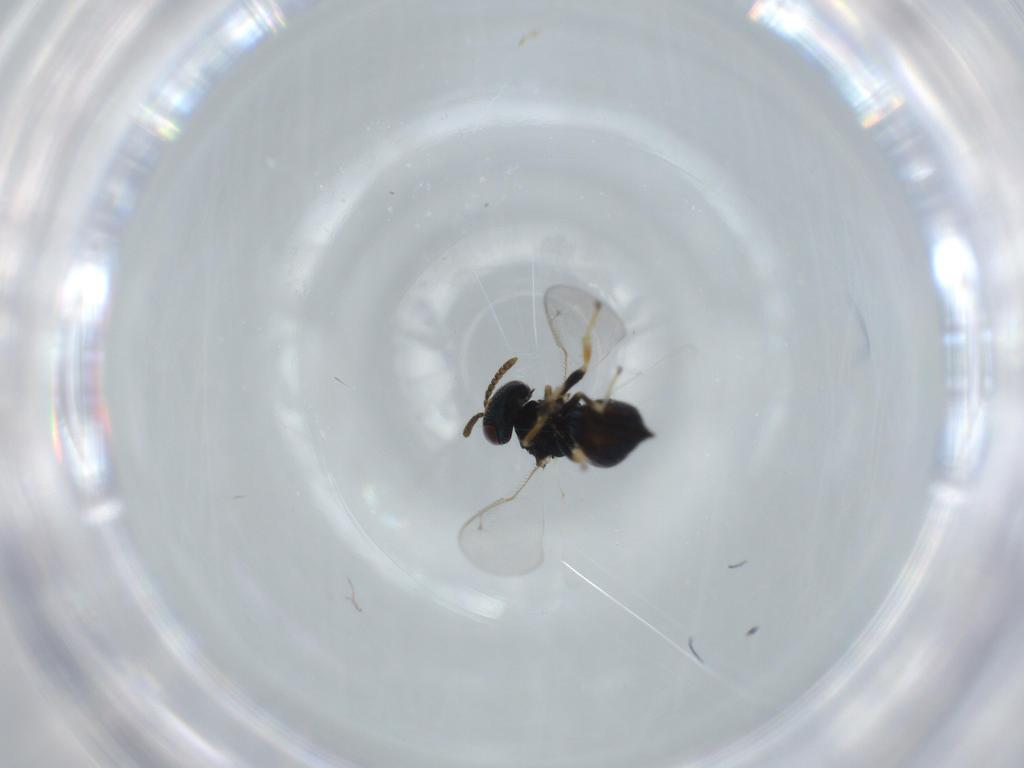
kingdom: Animalia
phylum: Arthropoda
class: Insecta
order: Hymenoptera
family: Pteromalidae
